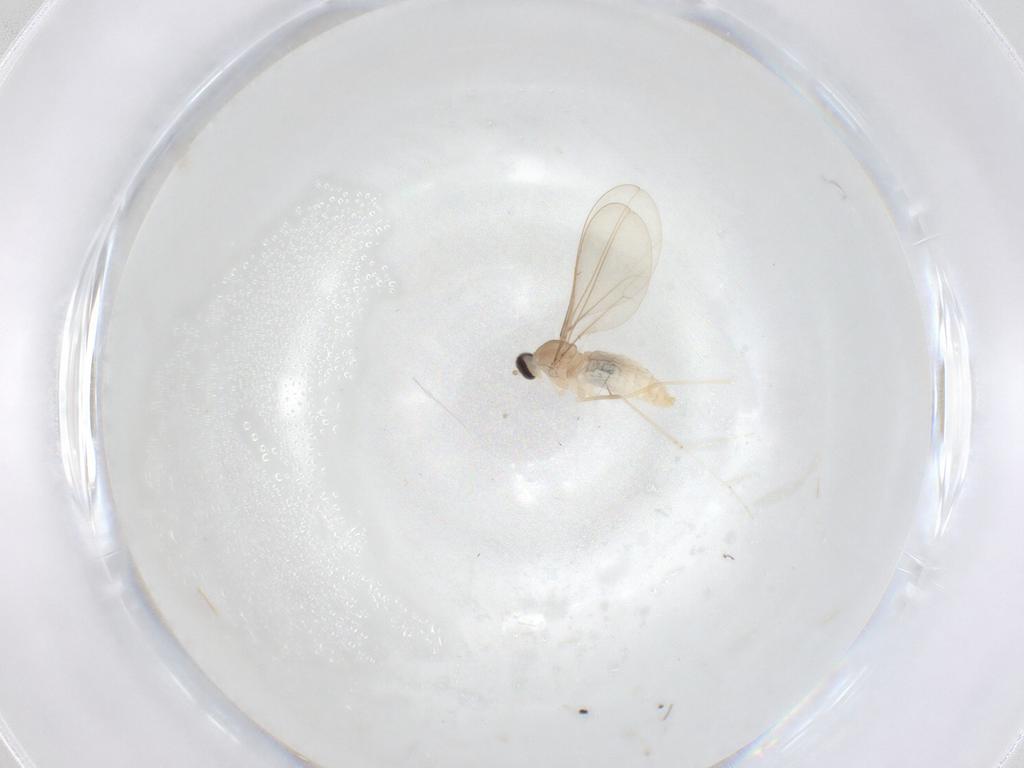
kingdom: Animalia
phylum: Arthropoda
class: Insecta
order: Diptera
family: Cecidomyiidae
